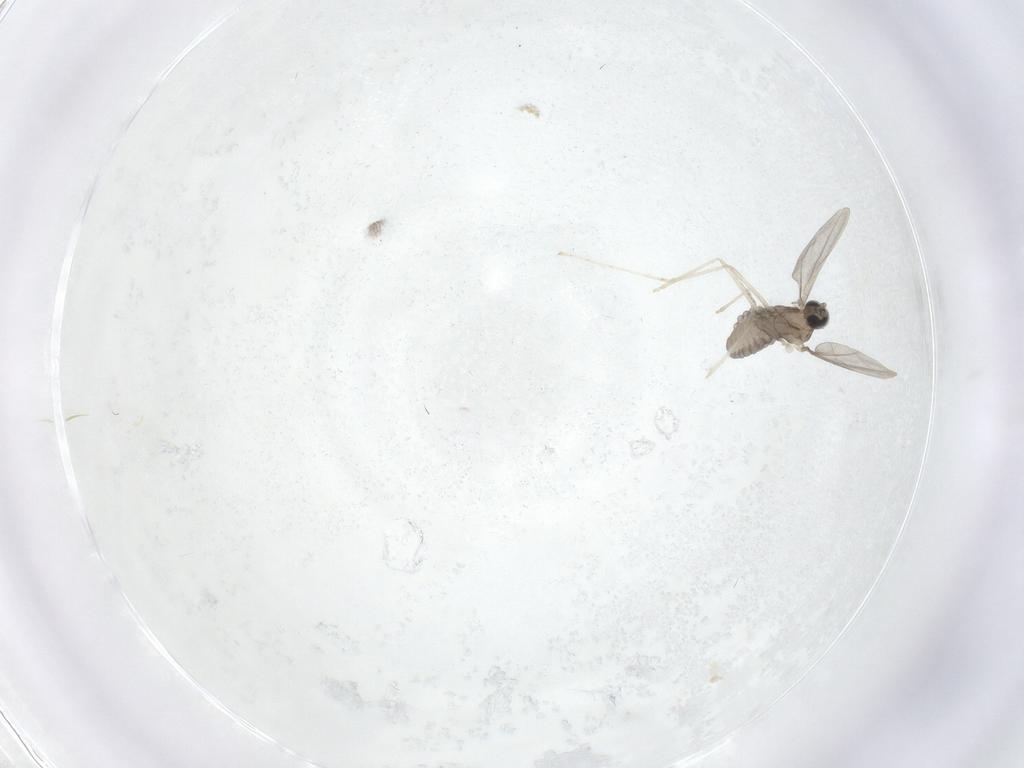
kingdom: Animalia
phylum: Arthropoda
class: Insecta
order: Diptera
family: Cecidomyiidae
